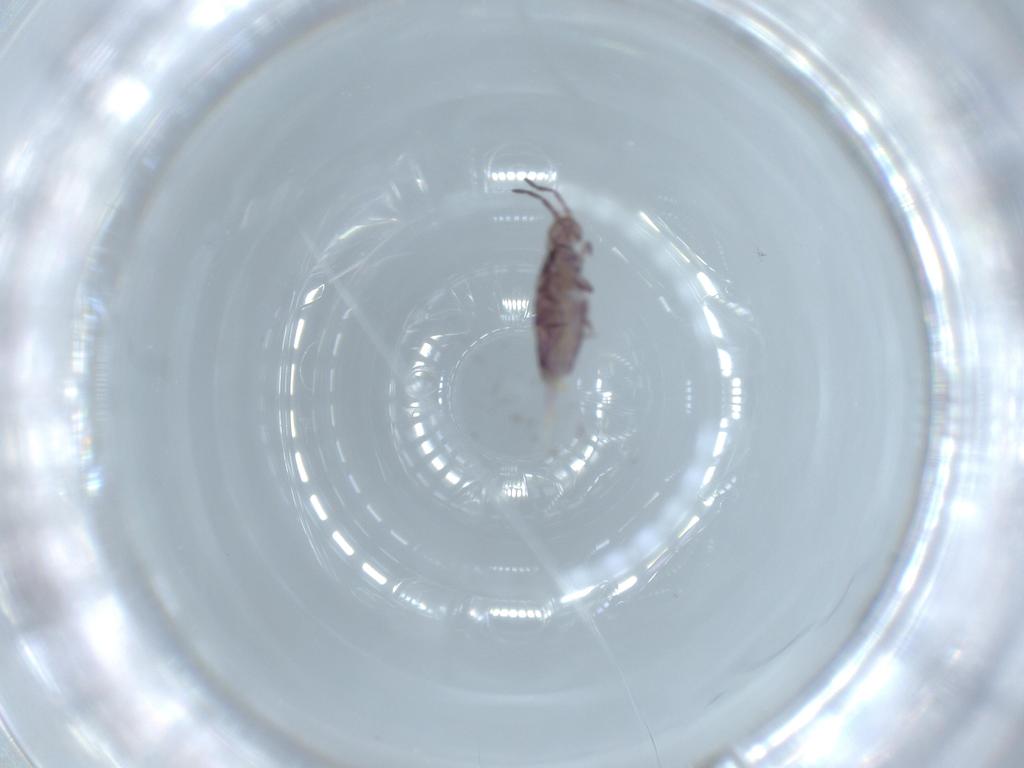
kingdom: Animalia
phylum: Arthropoda
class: Collembola
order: Entomobryomorpha
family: Entomobryidae
